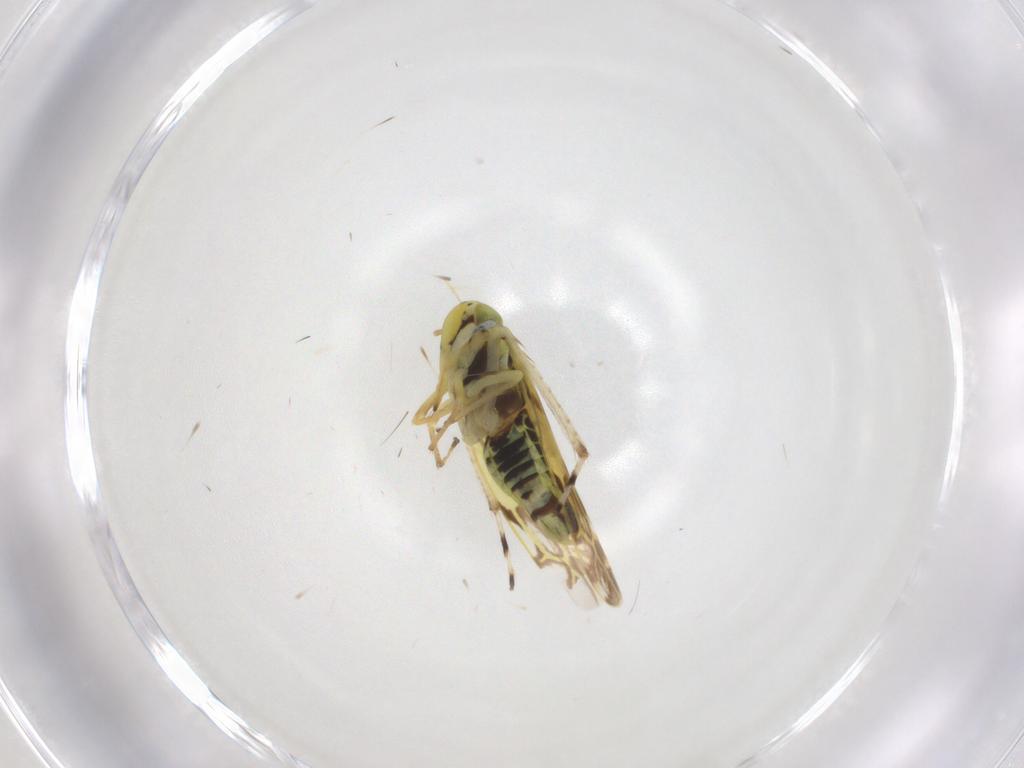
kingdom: Animalia
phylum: Arthropoda
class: Insecta
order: Hemiptera
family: Cicadellidae
